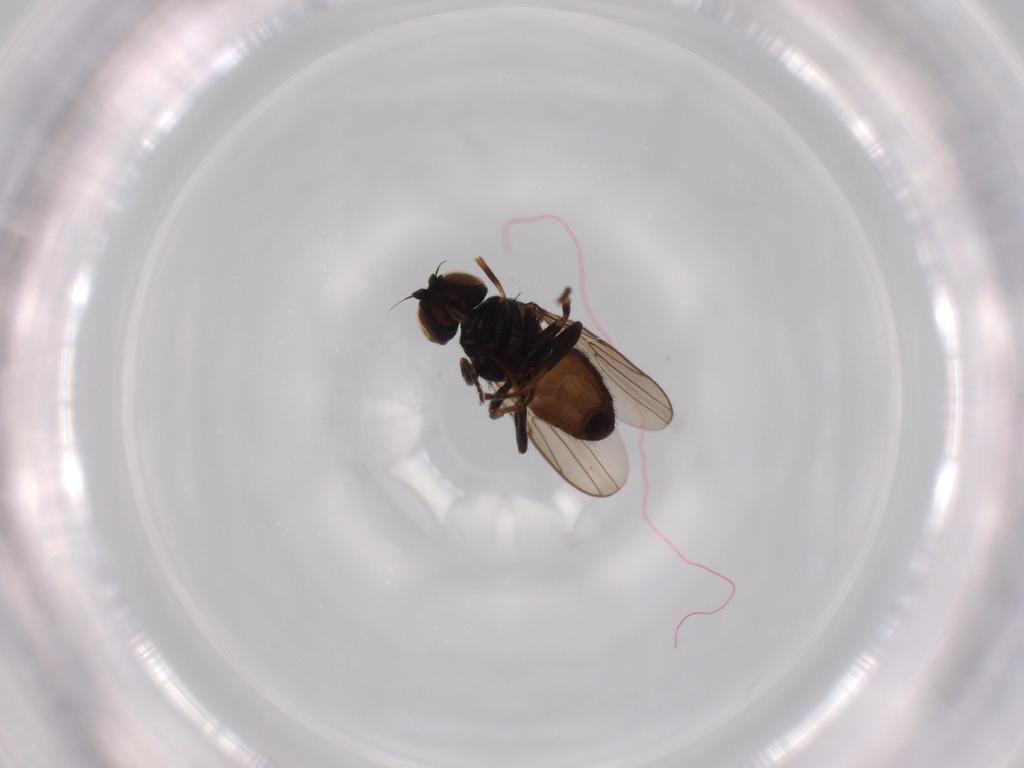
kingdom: Animalia
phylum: Arthropoda
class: Insecta
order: Diptera
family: Chloropidae
